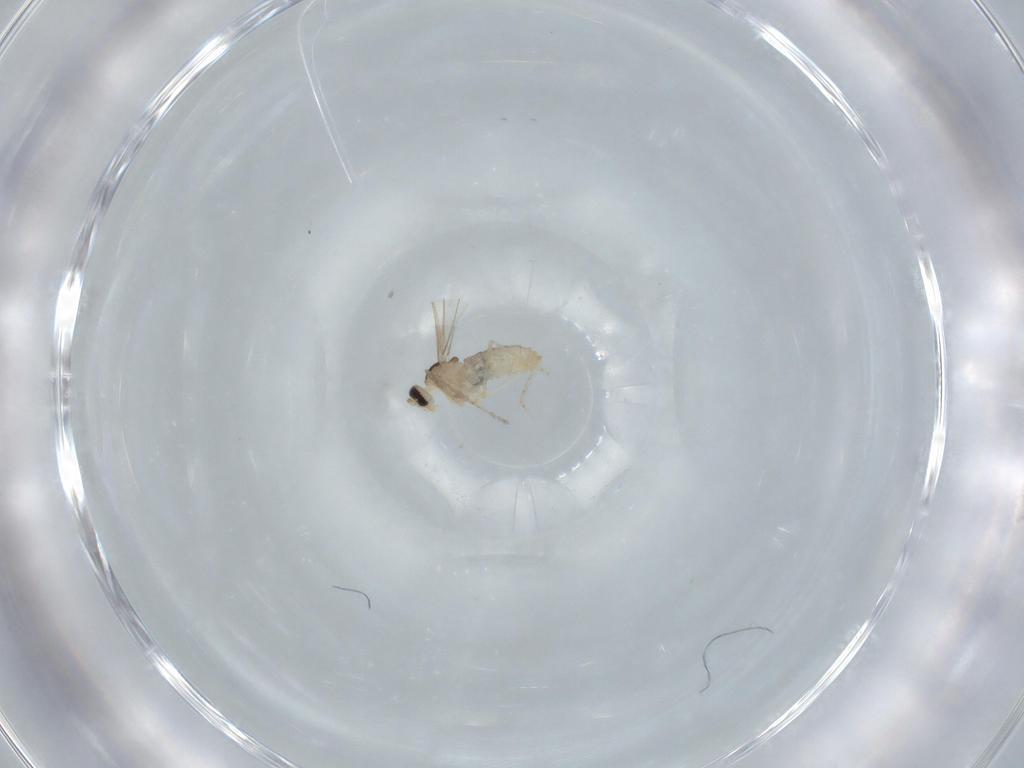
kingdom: Animalia
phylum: Arthropoda
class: Insecta
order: Diptera
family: Cecidomyiidae
